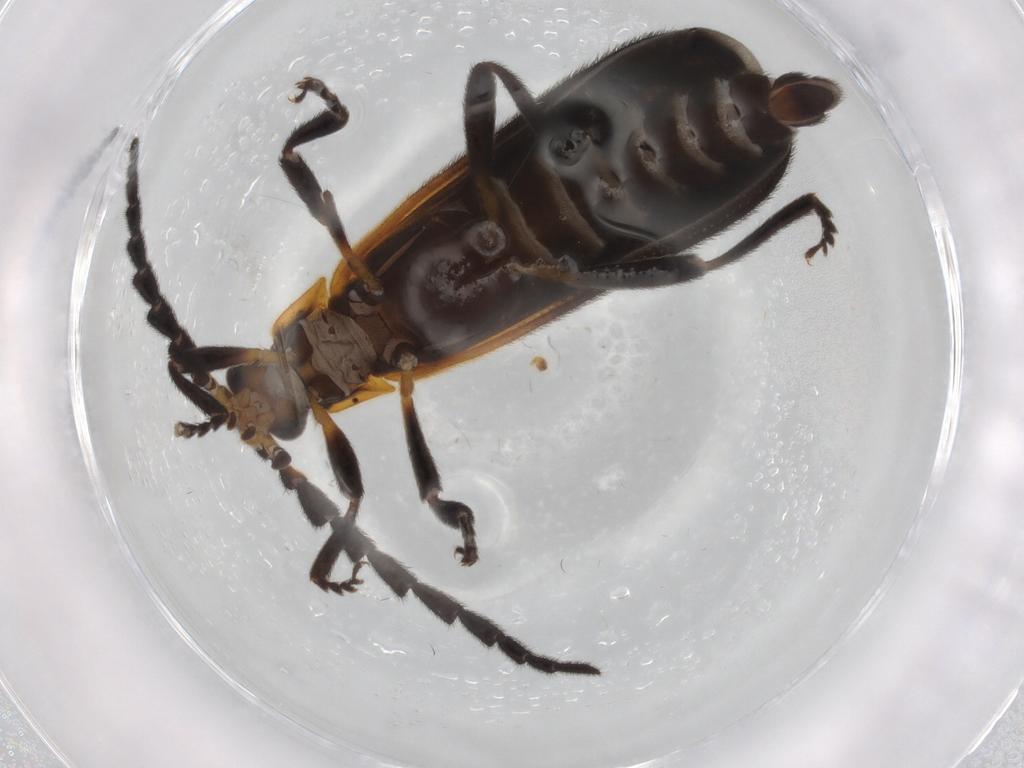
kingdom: Animalia
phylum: Arthropoda
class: Insecta
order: Coleoptera
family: Lycidae
